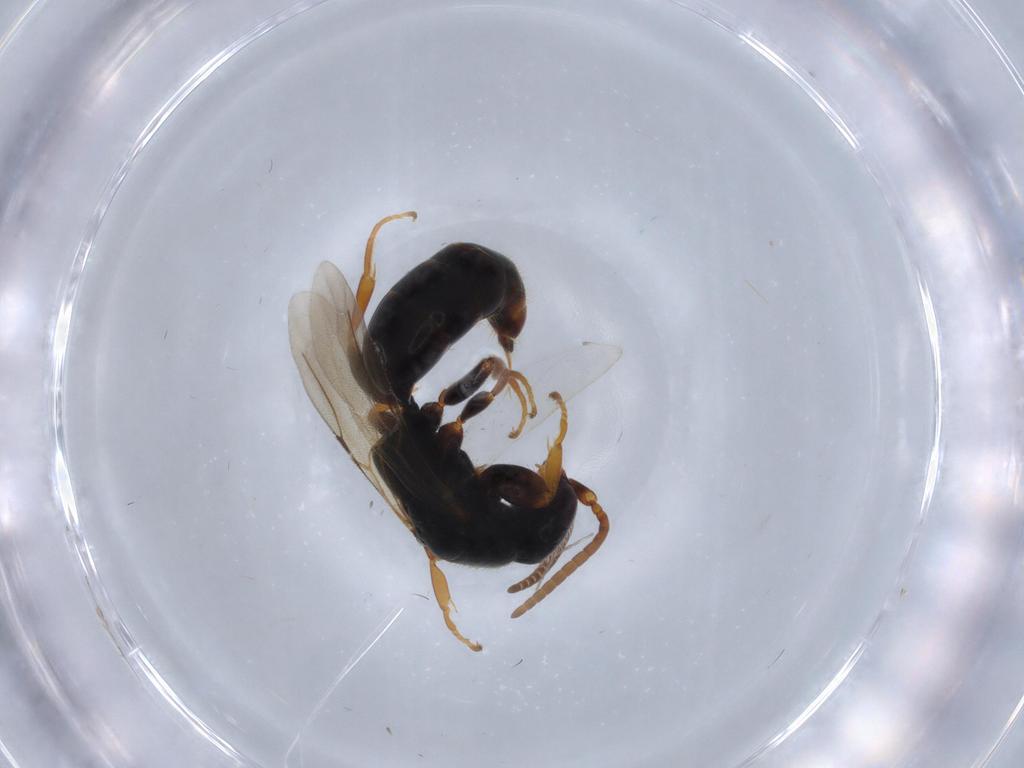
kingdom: Animalia
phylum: Arthropoda
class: Insecta
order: Hymenoptera
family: Bethylidae
